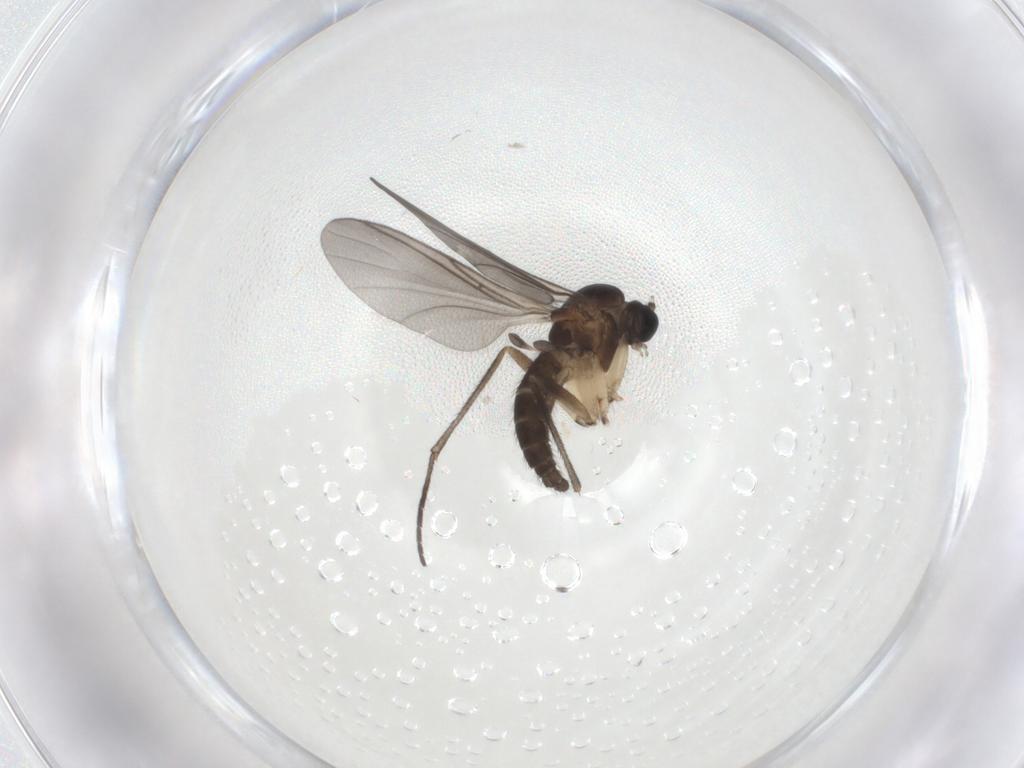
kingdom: Animalia
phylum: Arthropoda
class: Insecta
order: Diptera
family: Sciaridae
